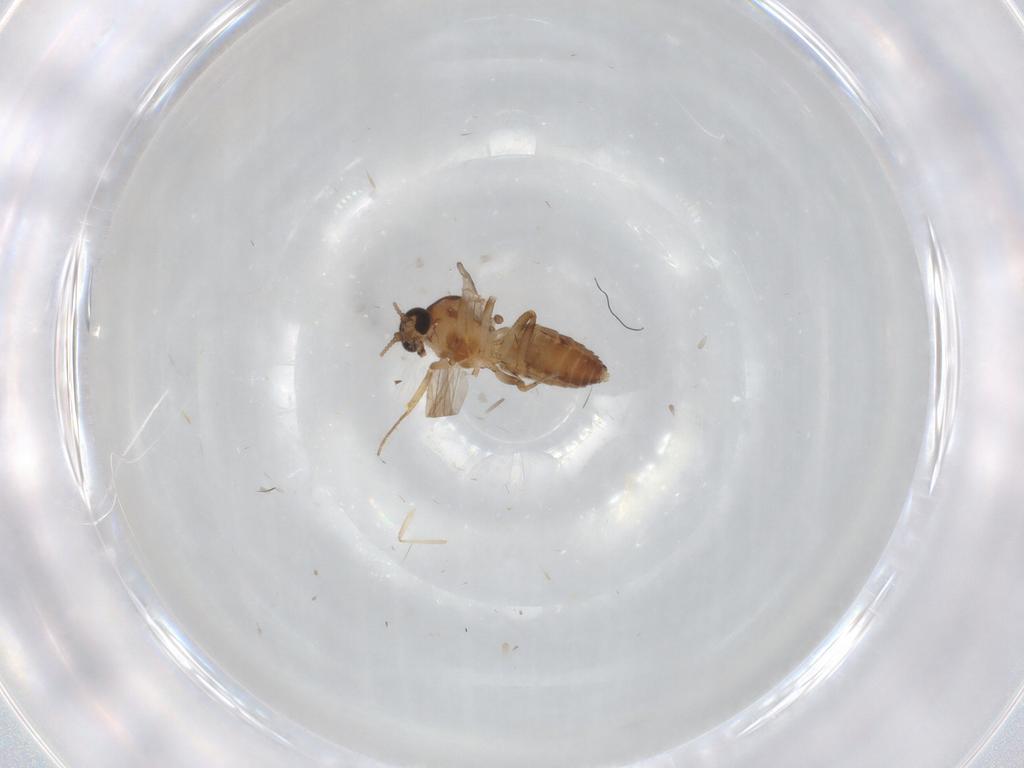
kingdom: Animalia
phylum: Arthropoda
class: Insecta
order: Diptera
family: Ceratopogonidae
